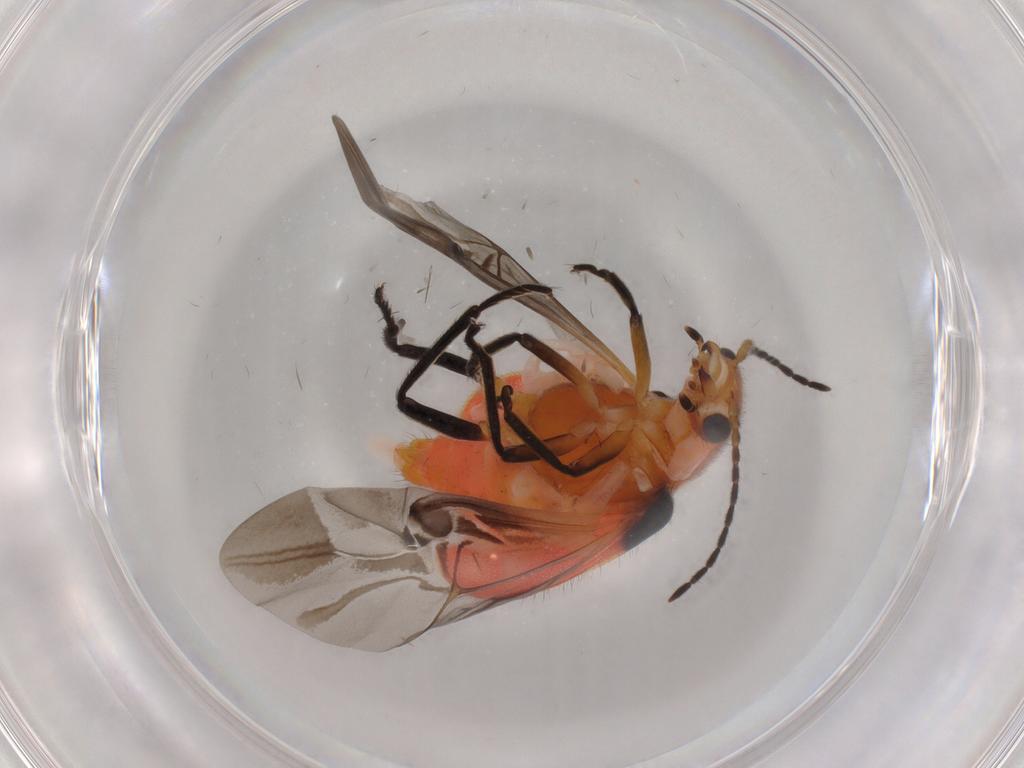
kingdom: Animalia
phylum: Arthropoda
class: Insecta
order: Coleoptera
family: Melyridae
